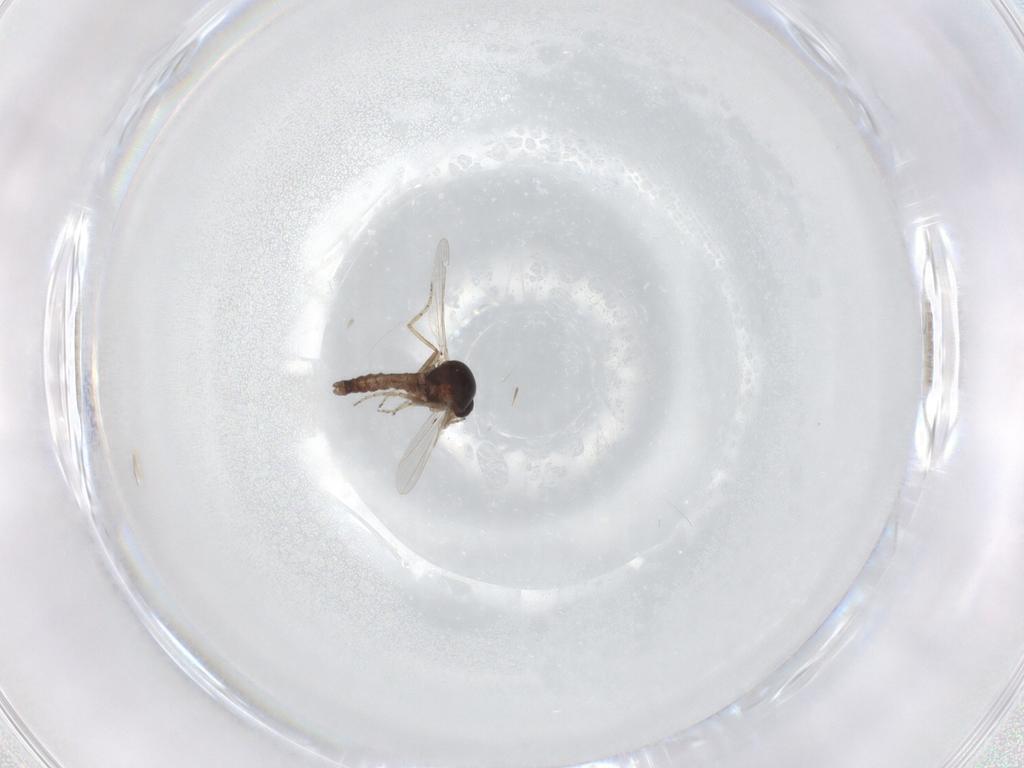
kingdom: Animalia
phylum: Arthropoda
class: Insecta
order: Diptera
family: Ceratopogonidae
